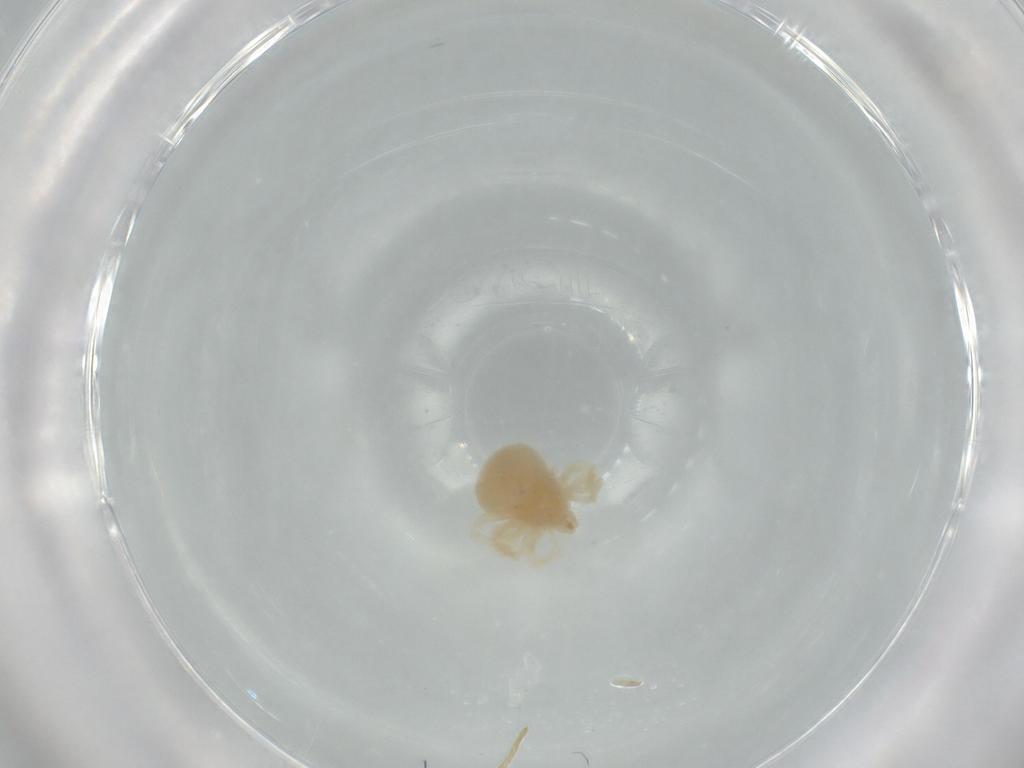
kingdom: Animalia
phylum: Arthropoda
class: Arachnida
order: Trombidiformes
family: Anystidae
